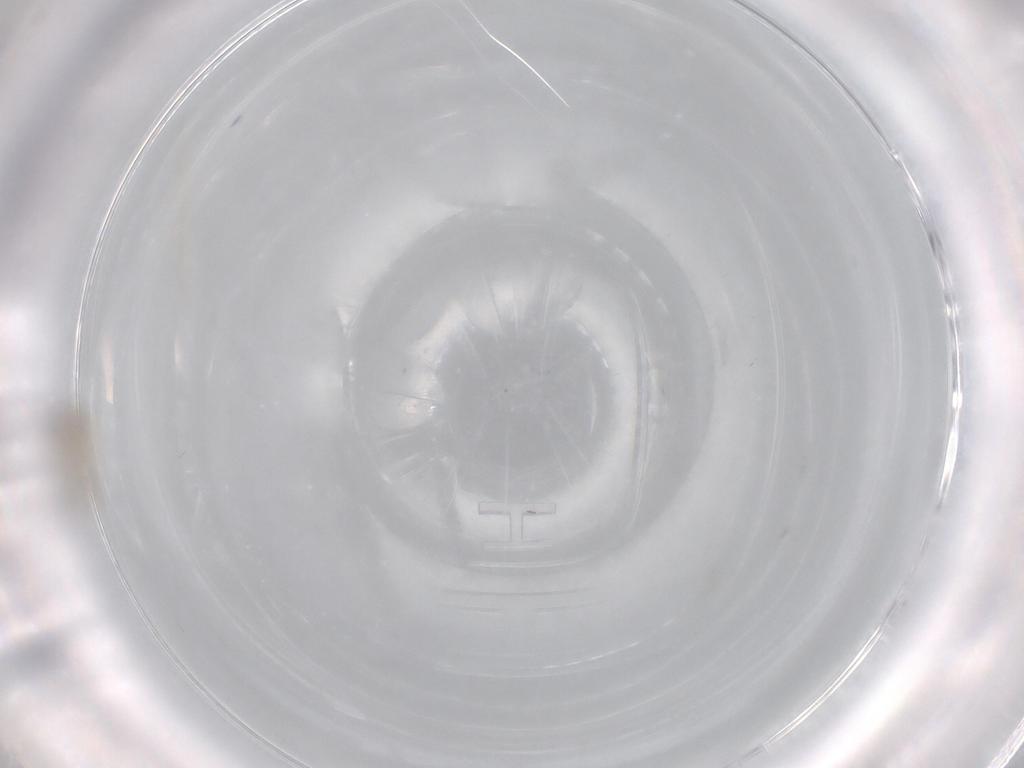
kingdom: Animalia
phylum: Arthropoda
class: Insecta
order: Diptera
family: Cecidomyiidae
